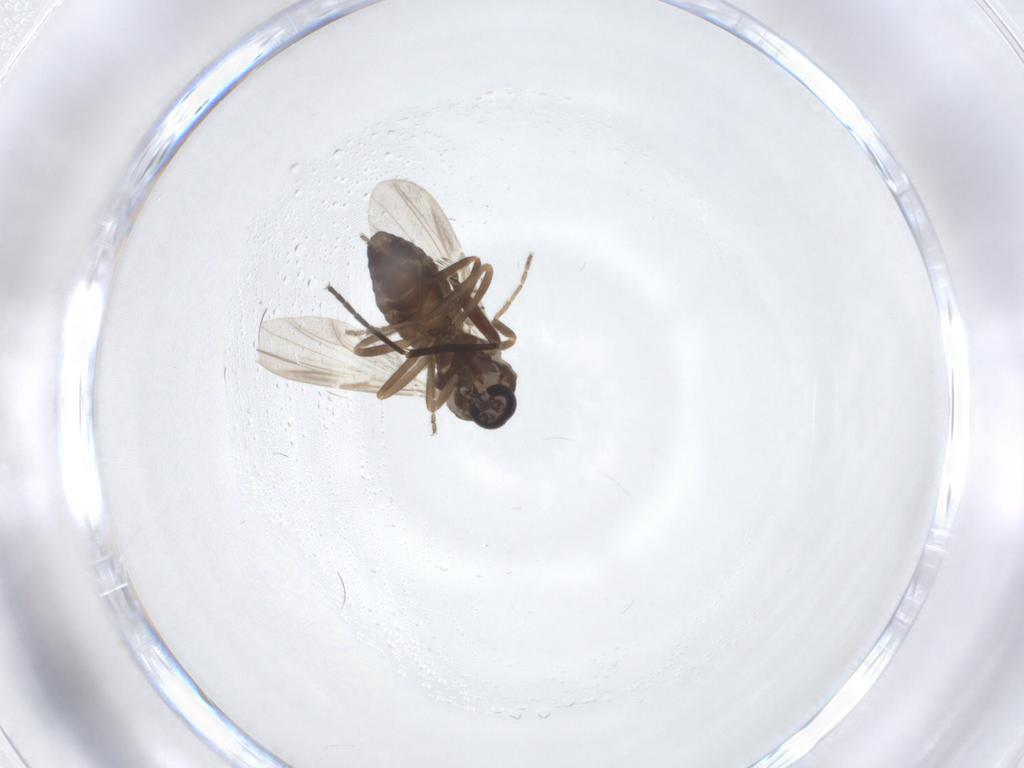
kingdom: Animalia
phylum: Arthropoda
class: Insecta
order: Diptera
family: Ceratopogonidae
